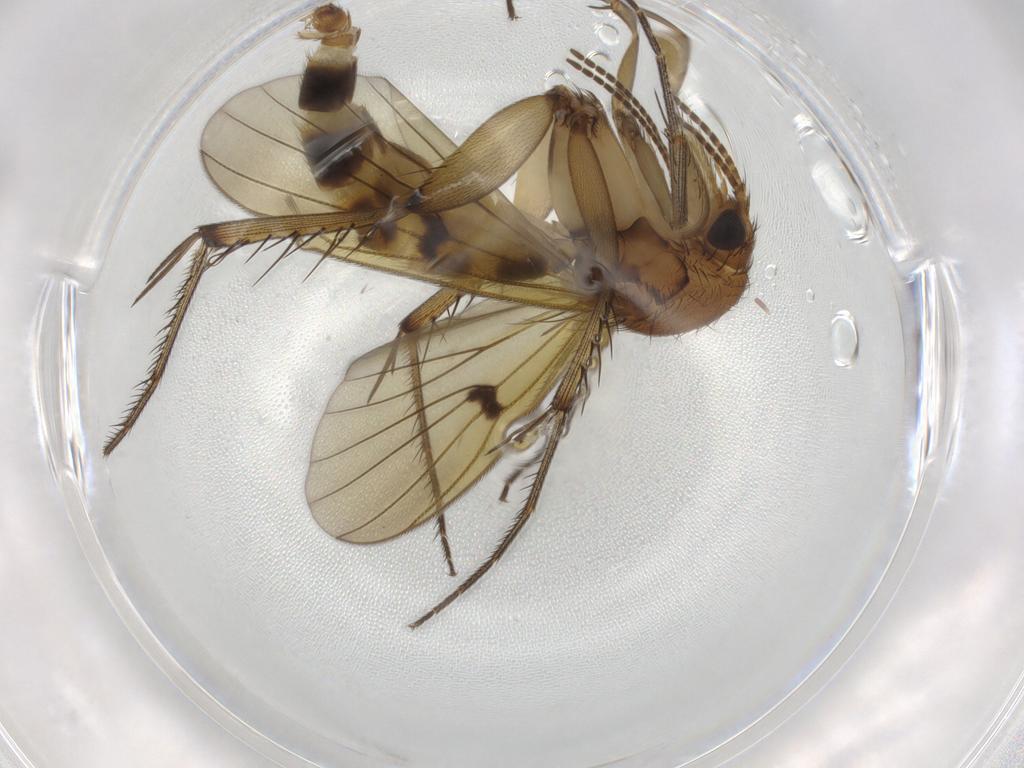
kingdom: Animalia
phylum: Arthropoda
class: Insecta
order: Diptera
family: Mycetophilidae
